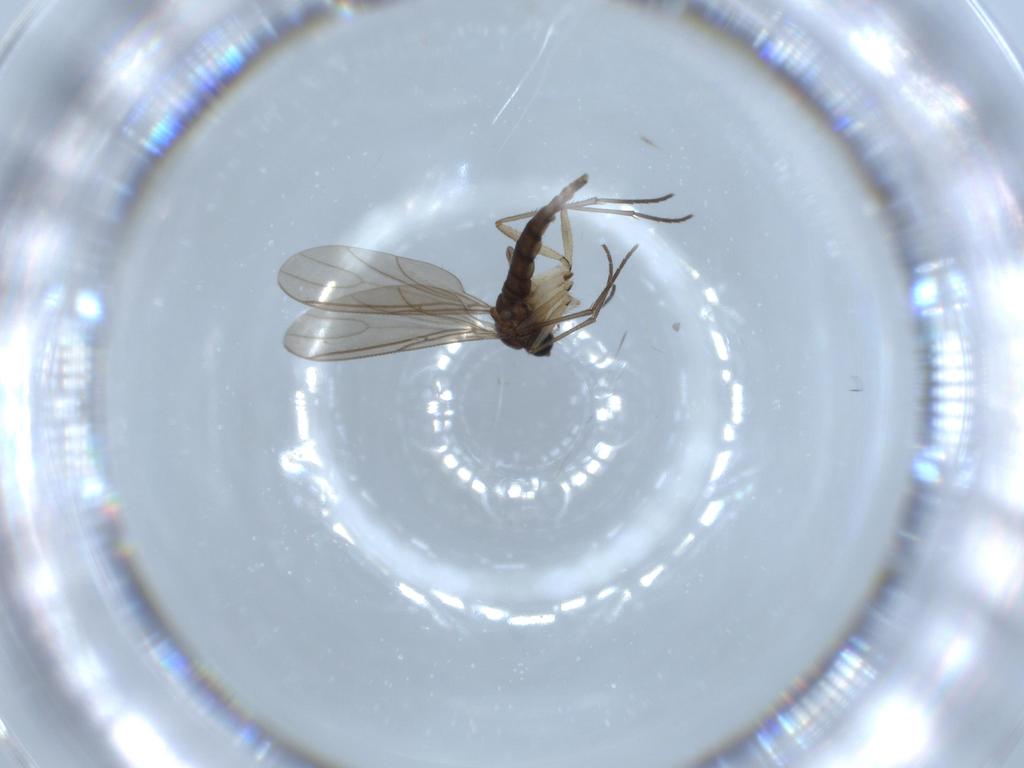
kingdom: Animalia
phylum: Arthropoda
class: Insecta
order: Diptera
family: Sciaridae
